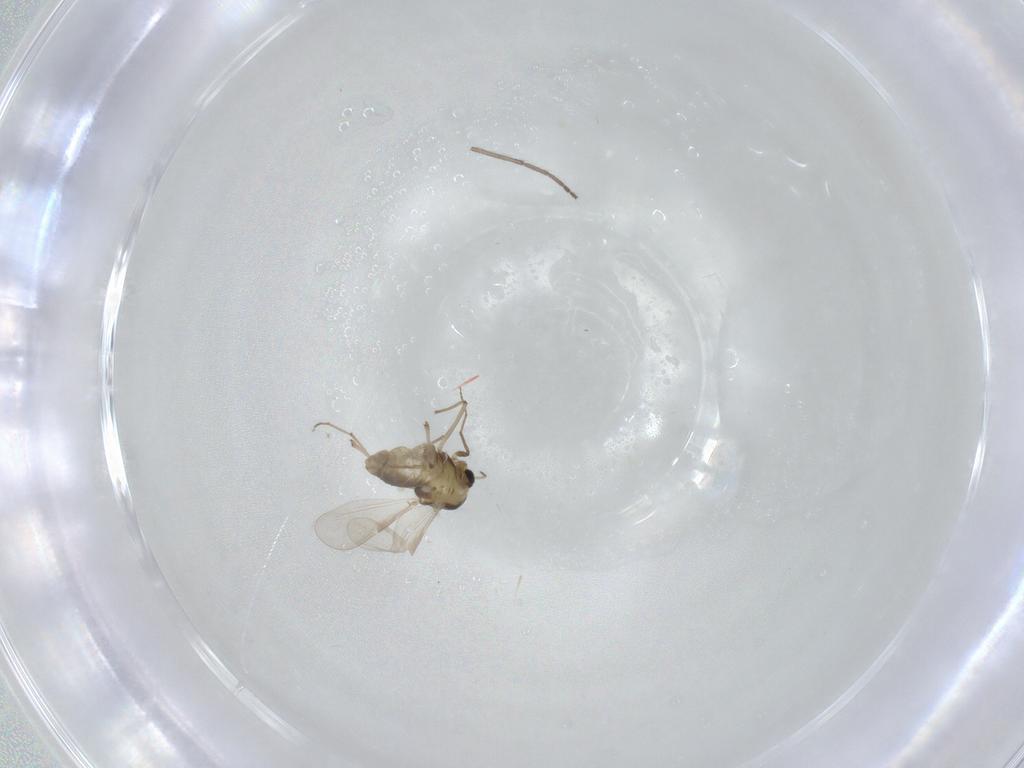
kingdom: Animalia
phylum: Arthropoda
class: Insecta
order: Diptera
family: Chironomidae
